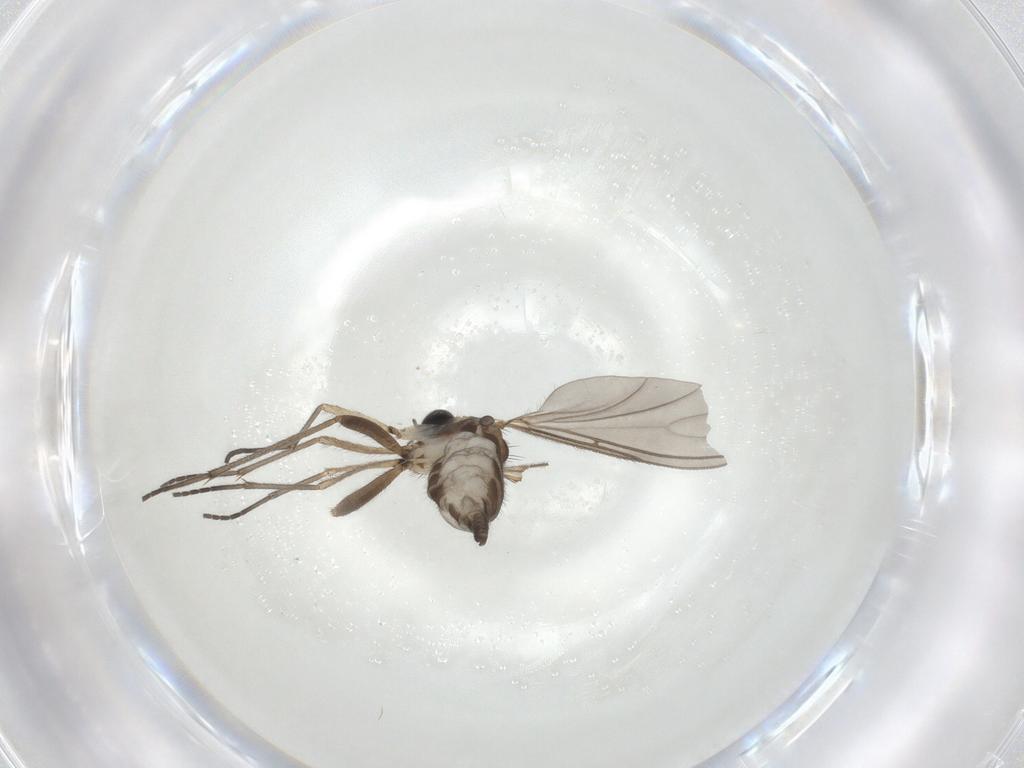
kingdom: Animalia
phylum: Arthropoda
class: Insecta
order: Diptera
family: Sciaridae
